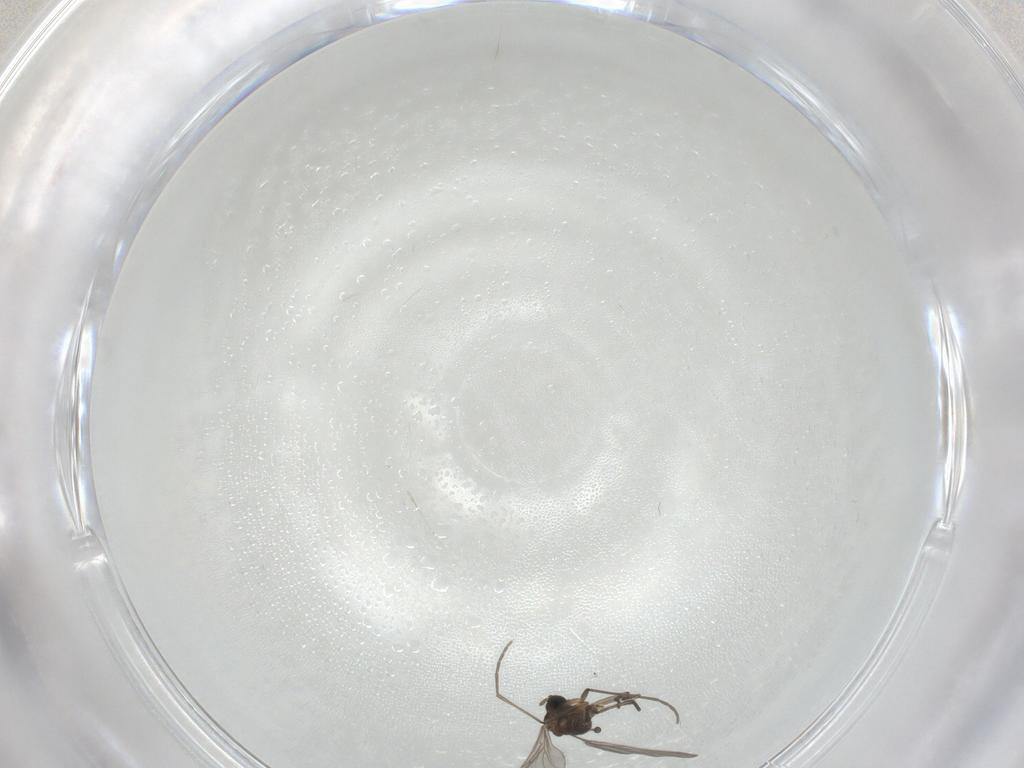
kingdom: Animalia
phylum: Arthropoda
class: Insecta
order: Diptera
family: Sciaridae
